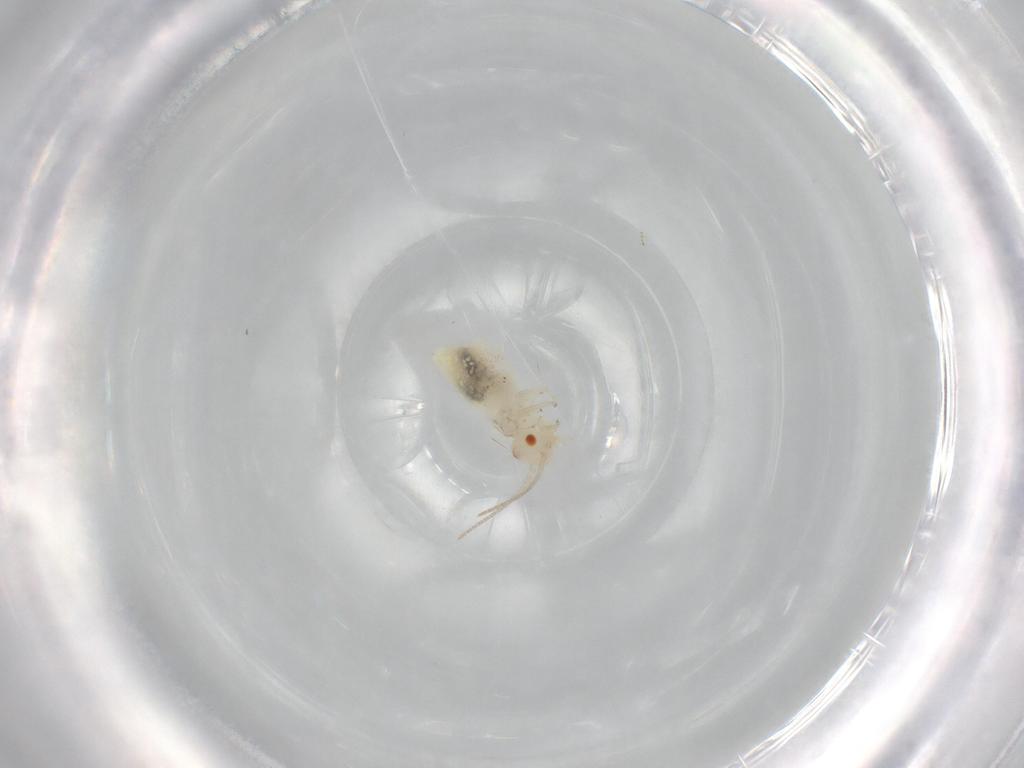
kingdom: Animalia
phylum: Arthropoda
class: Insecta
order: Psocodea
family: Caeciliusidae
